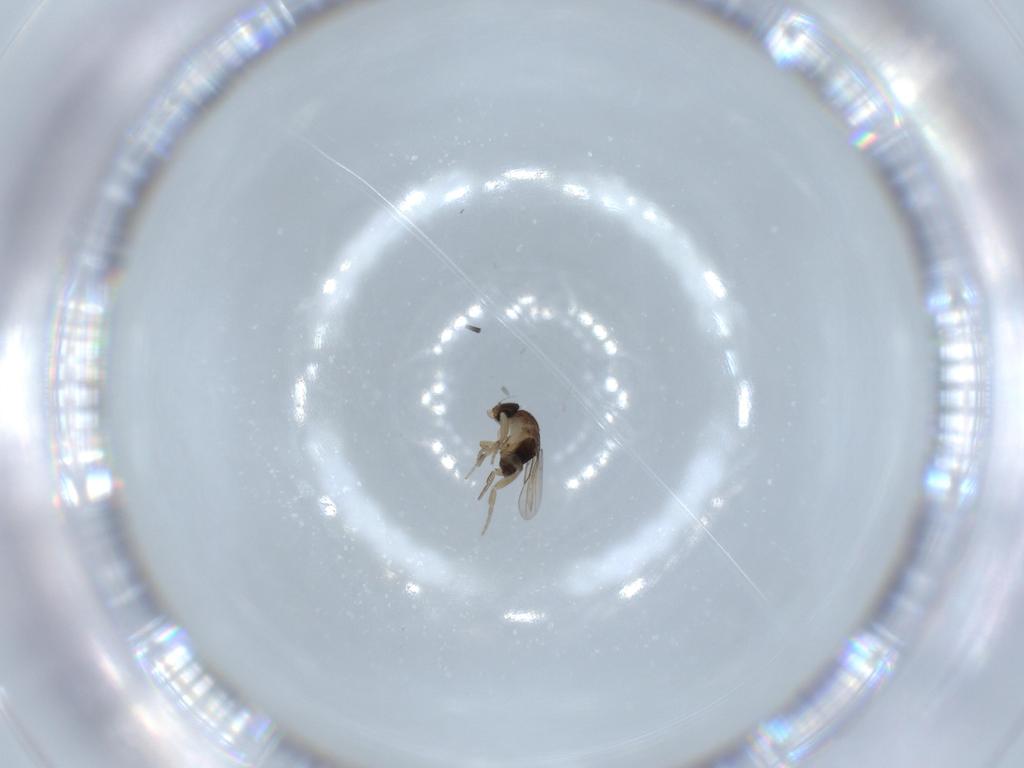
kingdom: Animalia
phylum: Arthropoda
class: Insecta
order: Diptera
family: Phoridae
